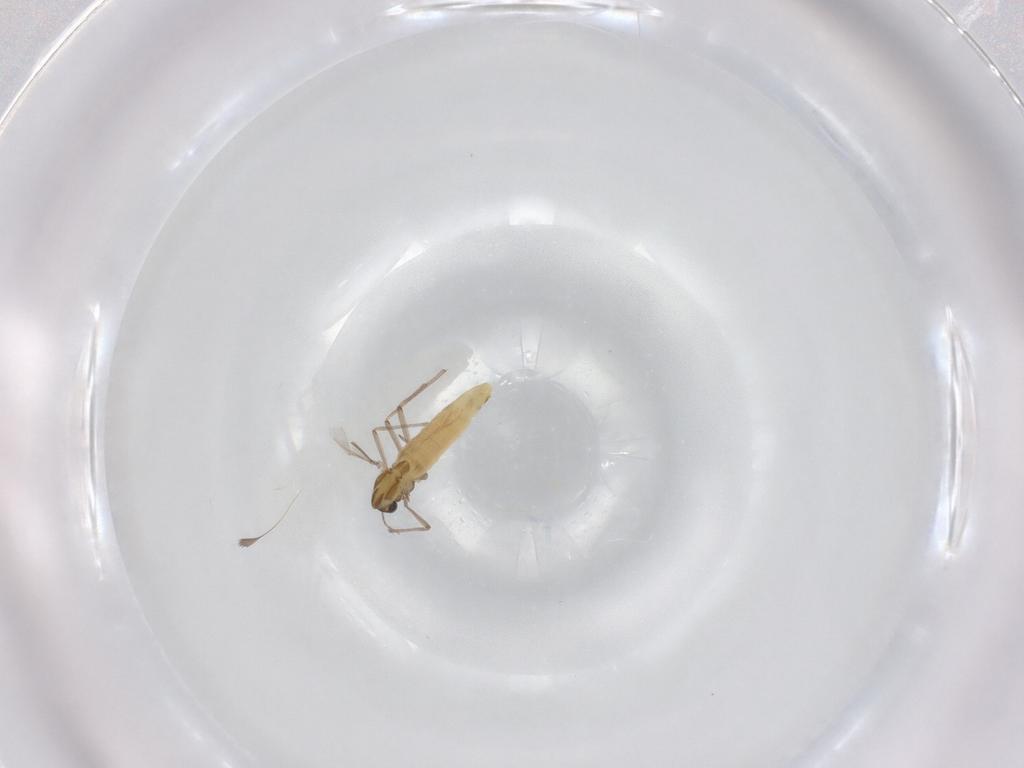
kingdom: Animalia
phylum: Arthropoda
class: Insecta
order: Diptera
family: Chironomidae
